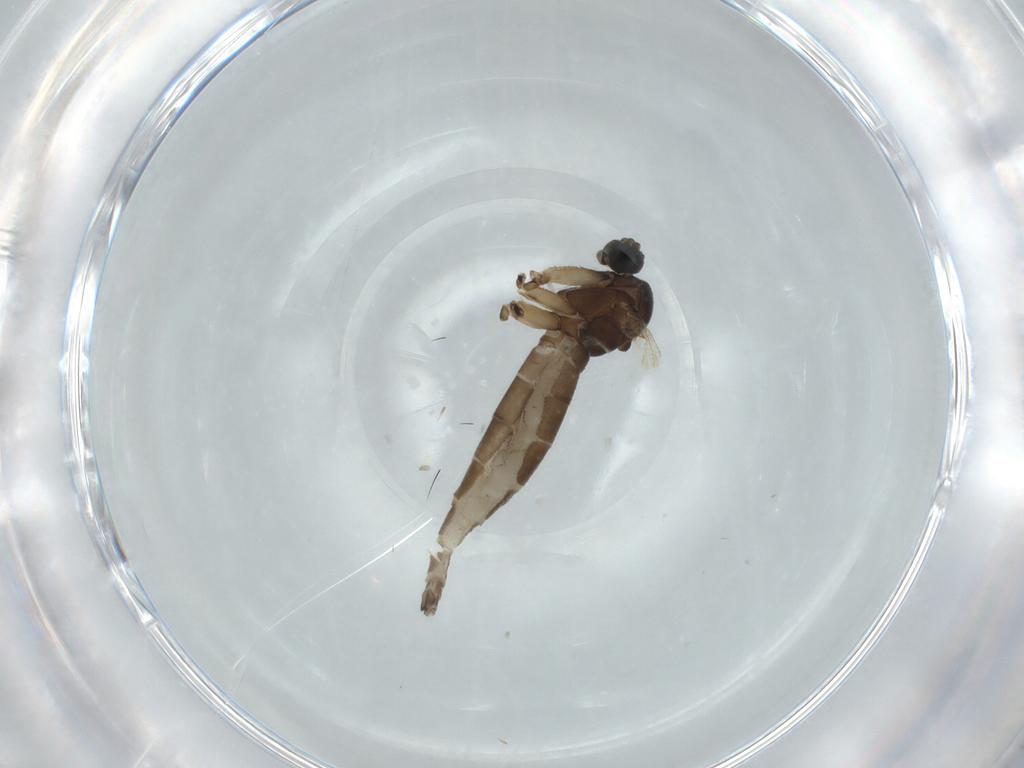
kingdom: Animalia
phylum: Arthropoda
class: Insecta
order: Diptera
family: Sciaridae
